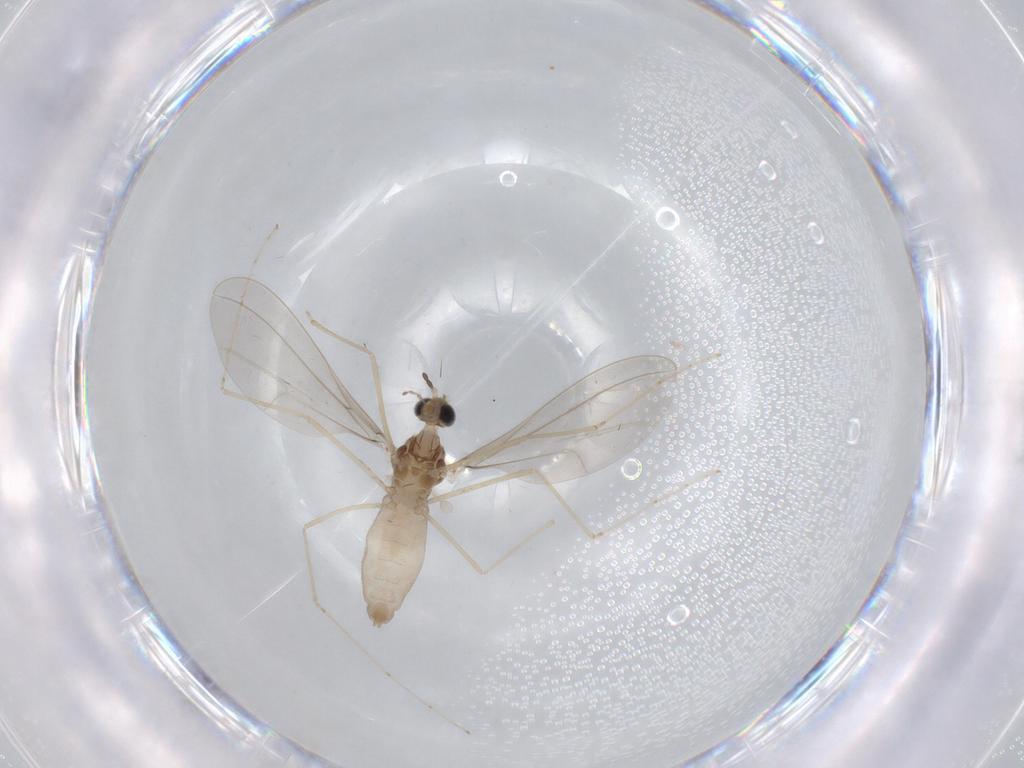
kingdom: Animalia
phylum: Arthropoda
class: Insecta
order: Diptera
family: Cecidomyiidae
